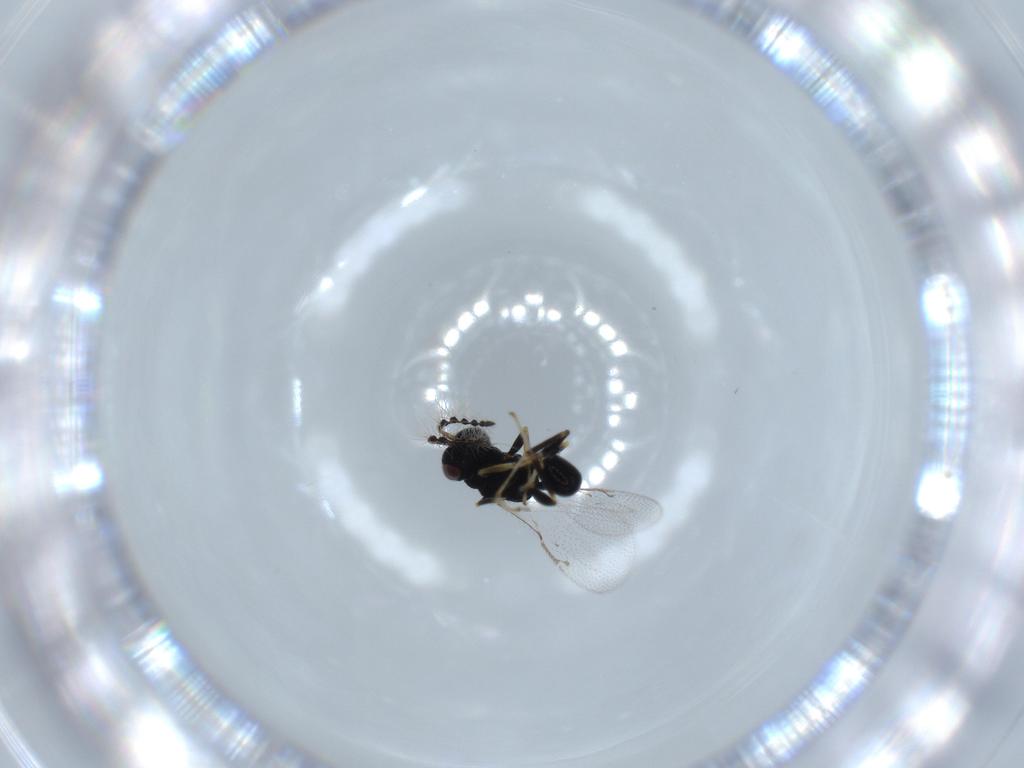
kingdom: Animalia
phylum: Arthropoda
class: Insecta
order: Hymenoptera
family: Eurytomidae
